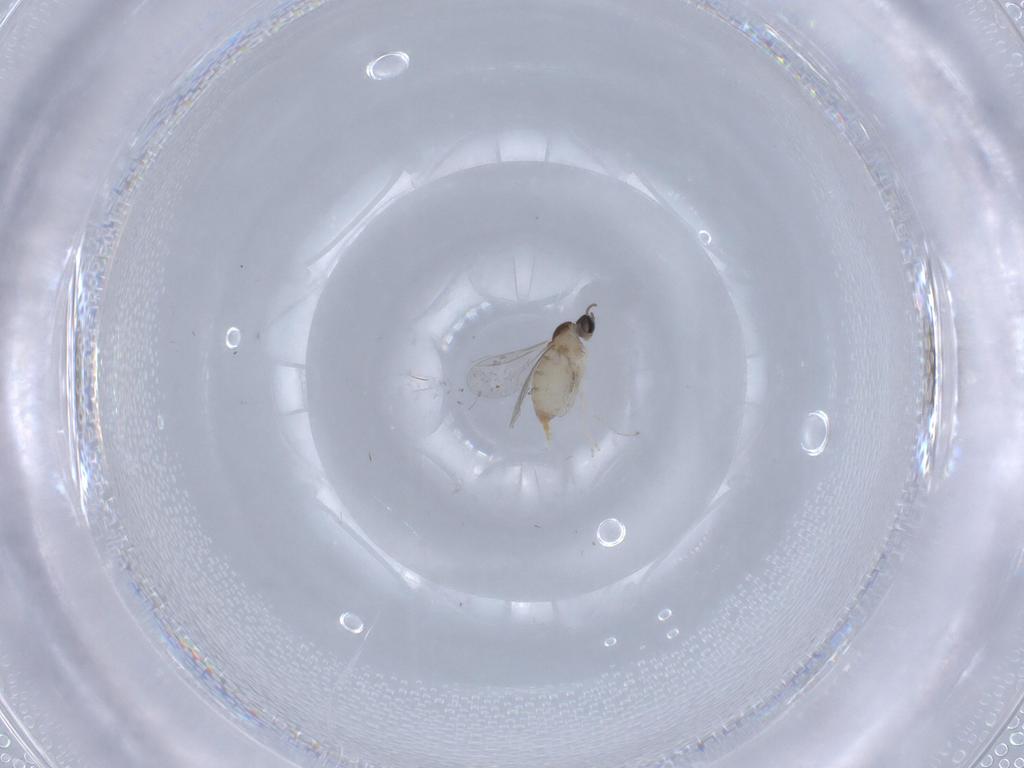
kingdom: Animalia
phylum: Arthropoda
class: Insecta
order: Diptera
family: Cecidomyiidae
